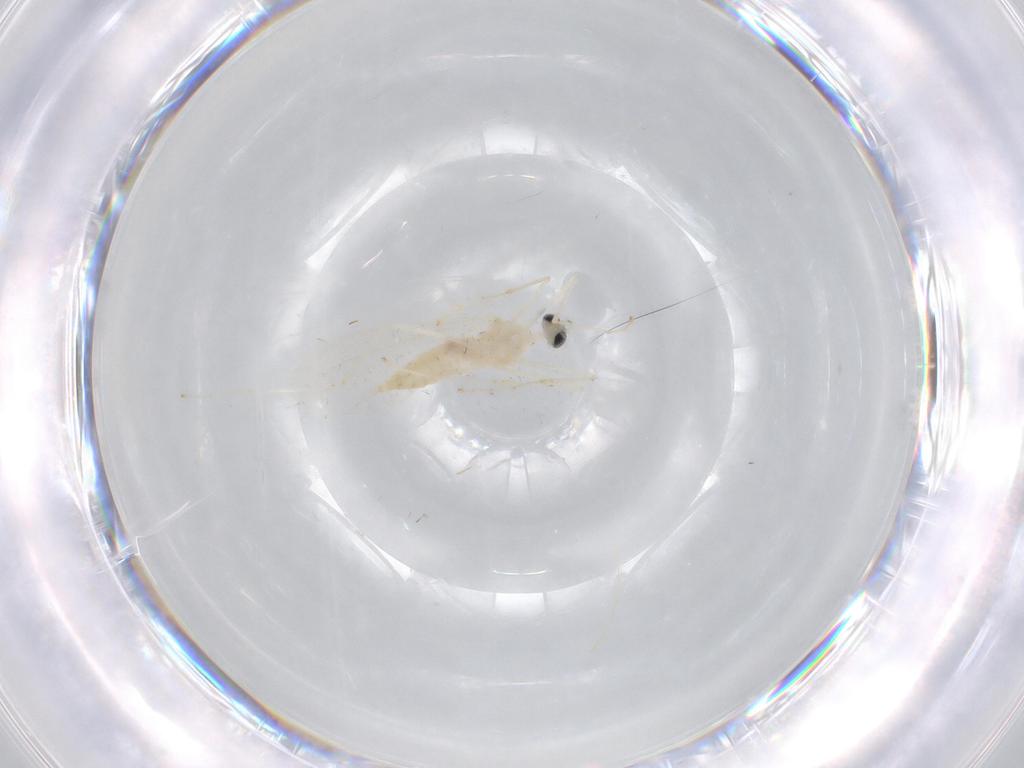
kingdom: Animalia
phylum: Arthropoda
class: Insecta
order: Diptera
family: Cecidomyiidae
